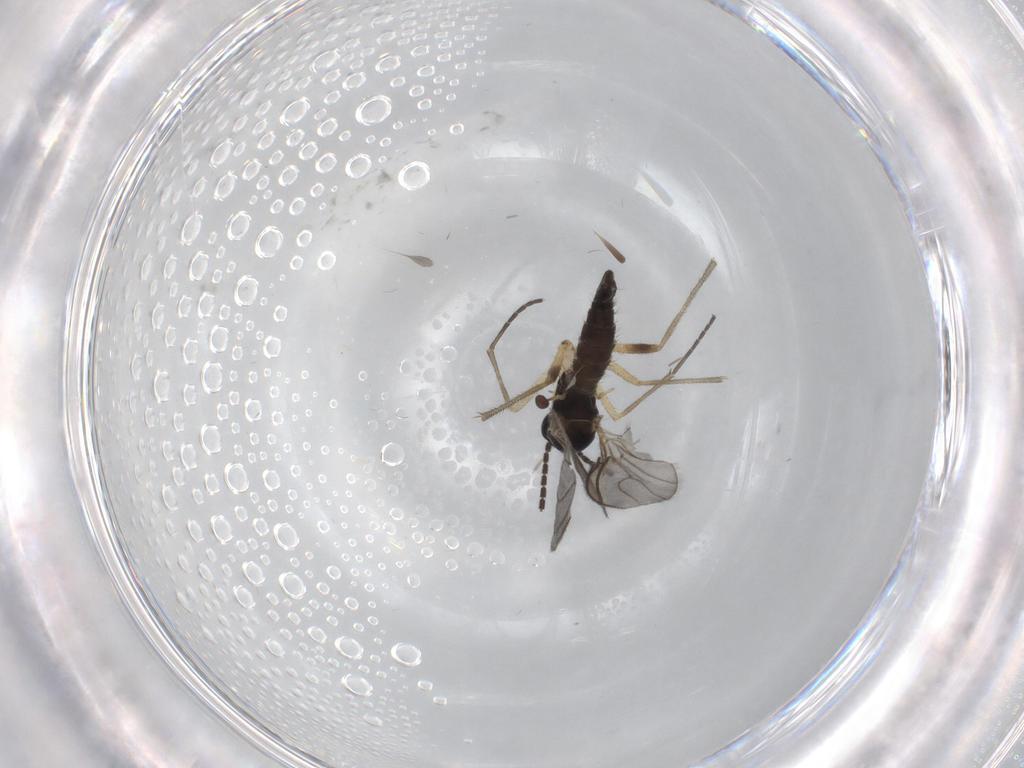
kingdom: Animalia
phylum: Arthropoda
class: Insecta
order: Diptera
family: Sciaridae
